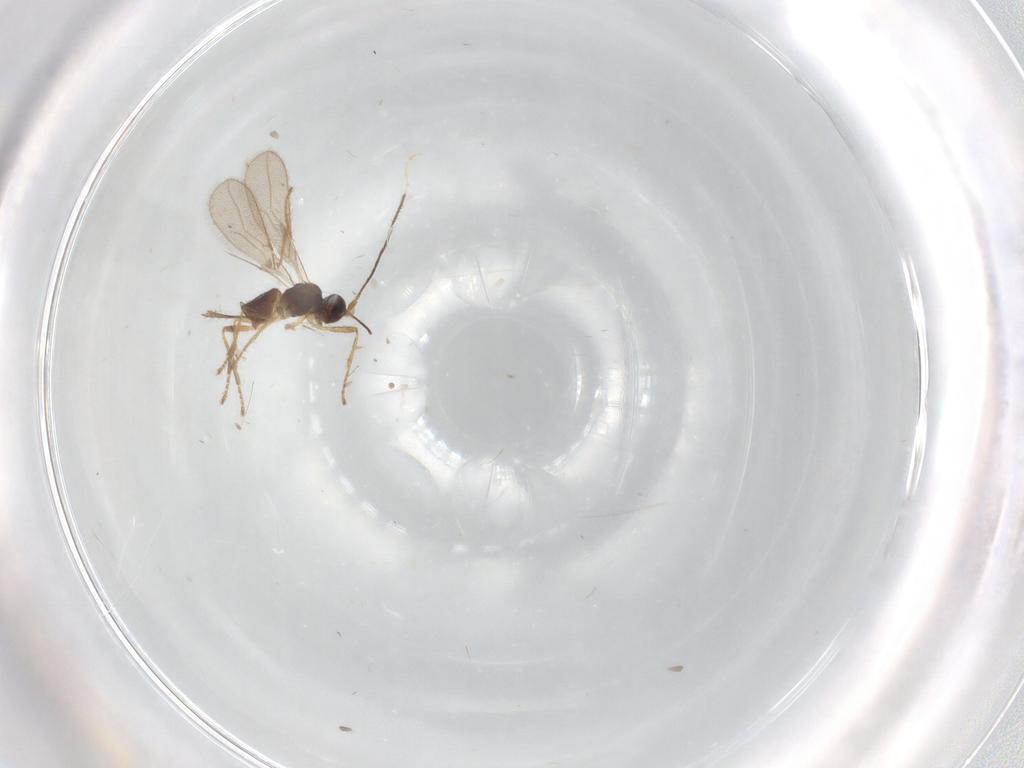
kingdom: Animalia
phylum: Arthropoda
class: Insecta
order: Hymenoptera
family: Braconidae
